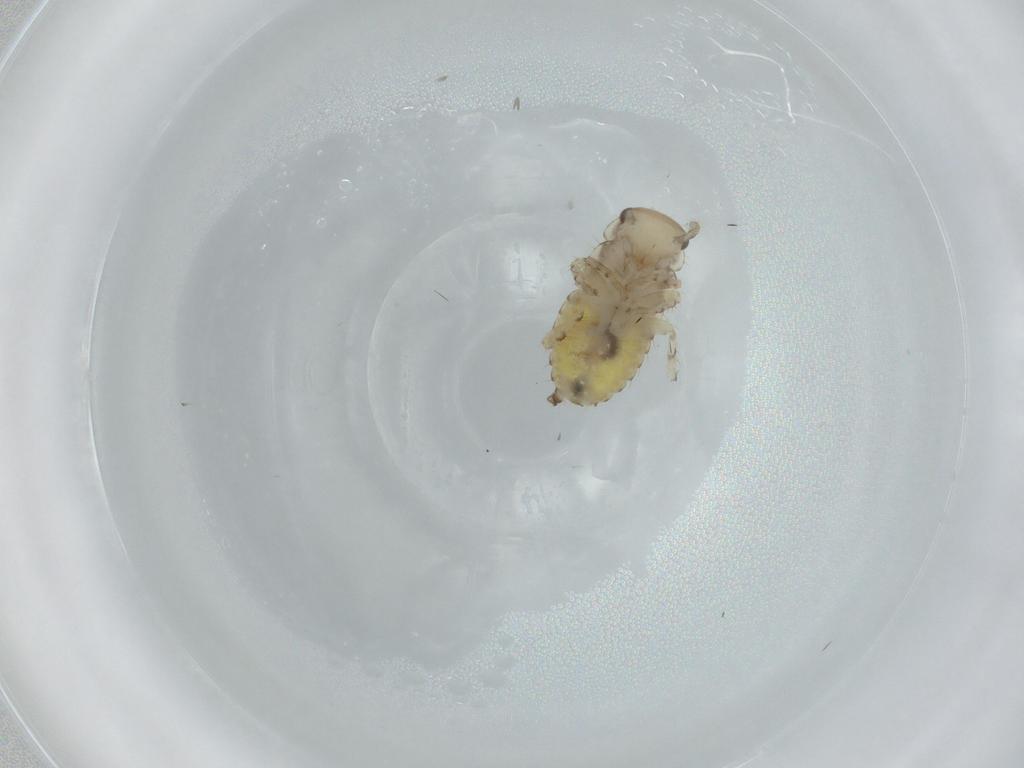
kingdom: Animalia
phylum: Arthropoda
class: Insecta
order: Blattodea
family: Ectobiidae
